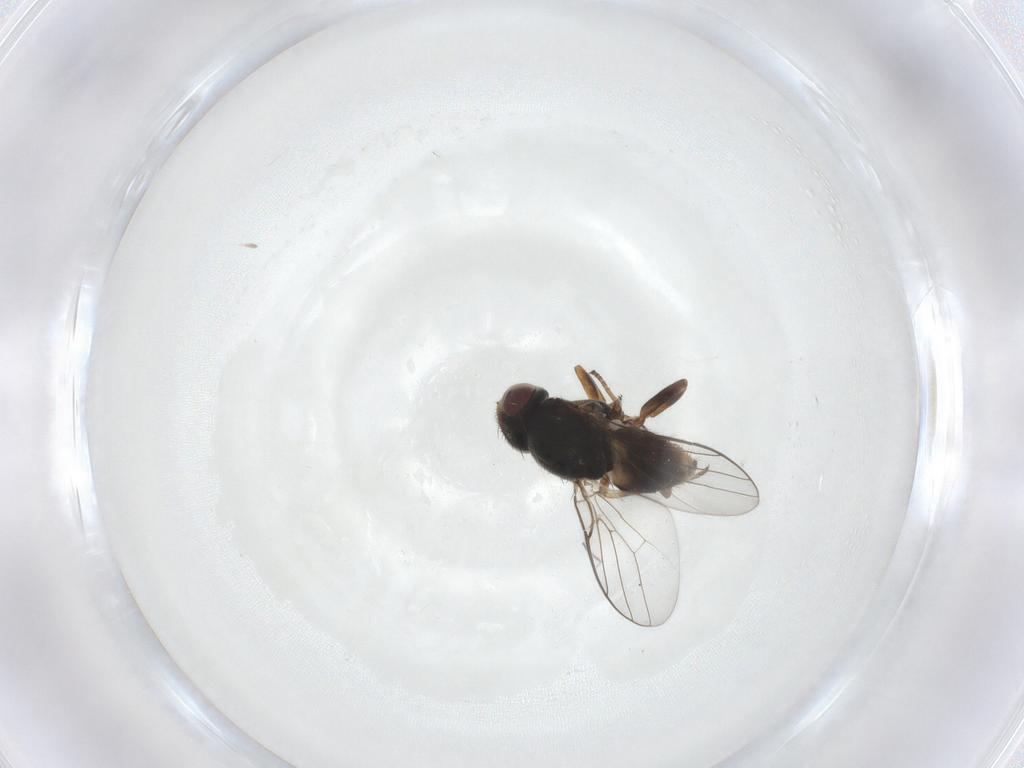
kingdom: Animalia
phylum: Arthropoda
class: Insecta
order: Diptera
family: Chloropidae
